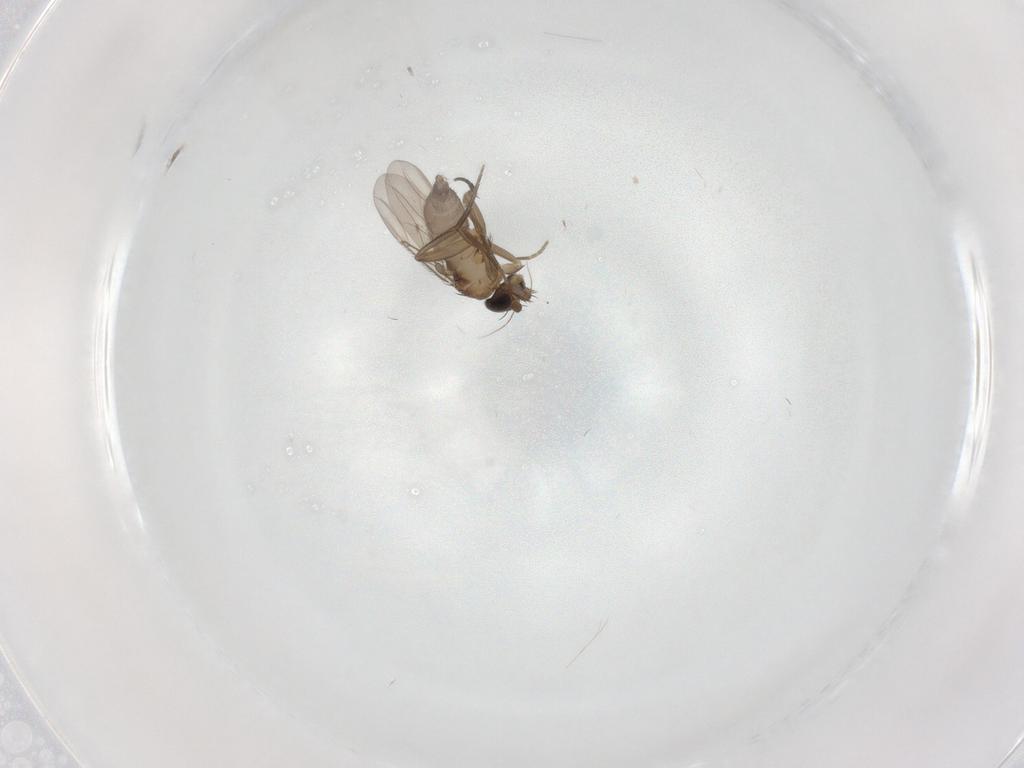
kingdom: Animalia
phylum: Arthropoda
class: Insecta
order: Diptera
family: Phoridae
